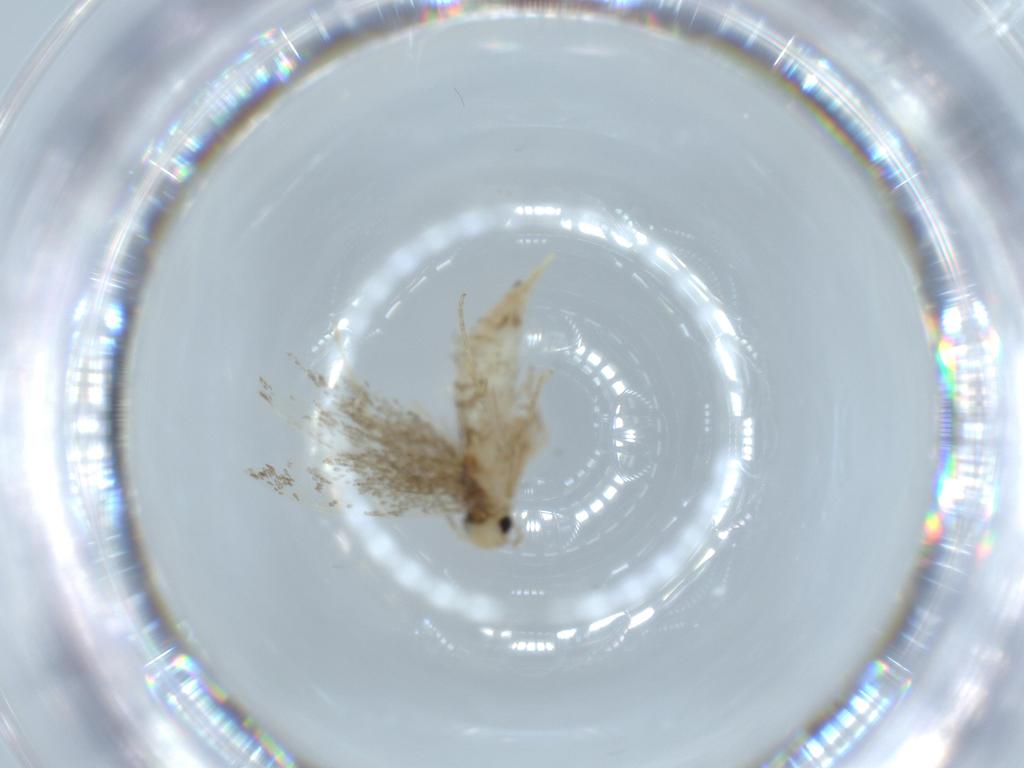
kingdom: Animalia
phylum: Arthropoda
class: Insecta
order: Lepidoptera
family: Tineidae
